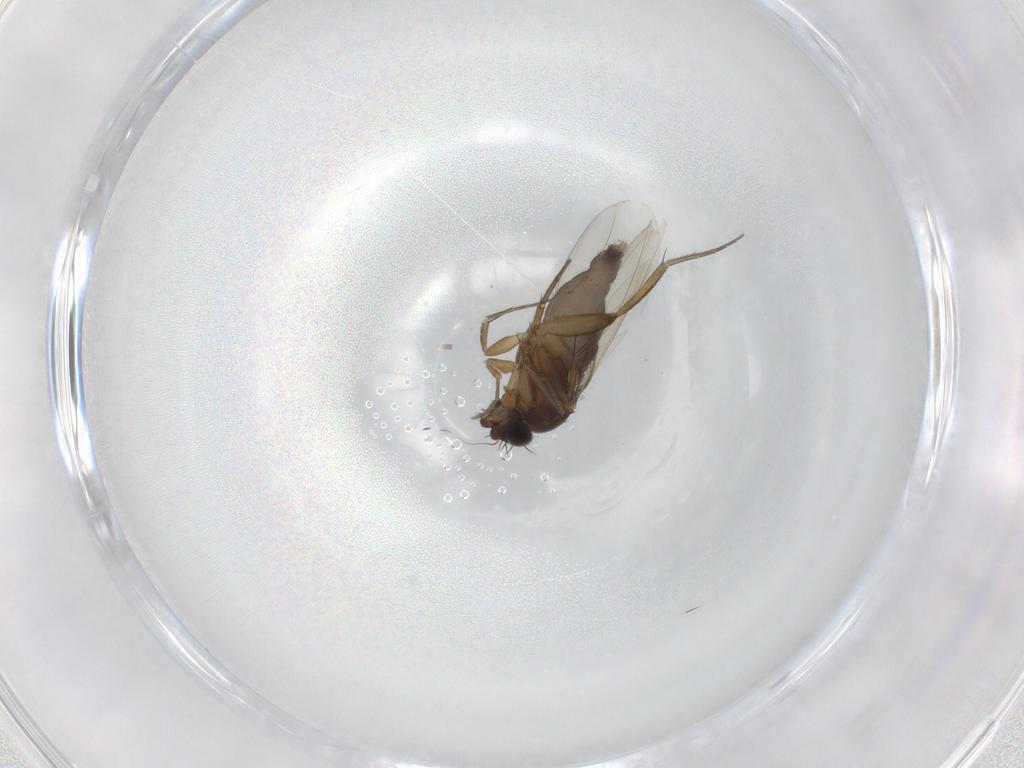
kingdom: Animalia
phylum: Arthropoda
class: Insecta
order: Diptera
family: Phoridae
